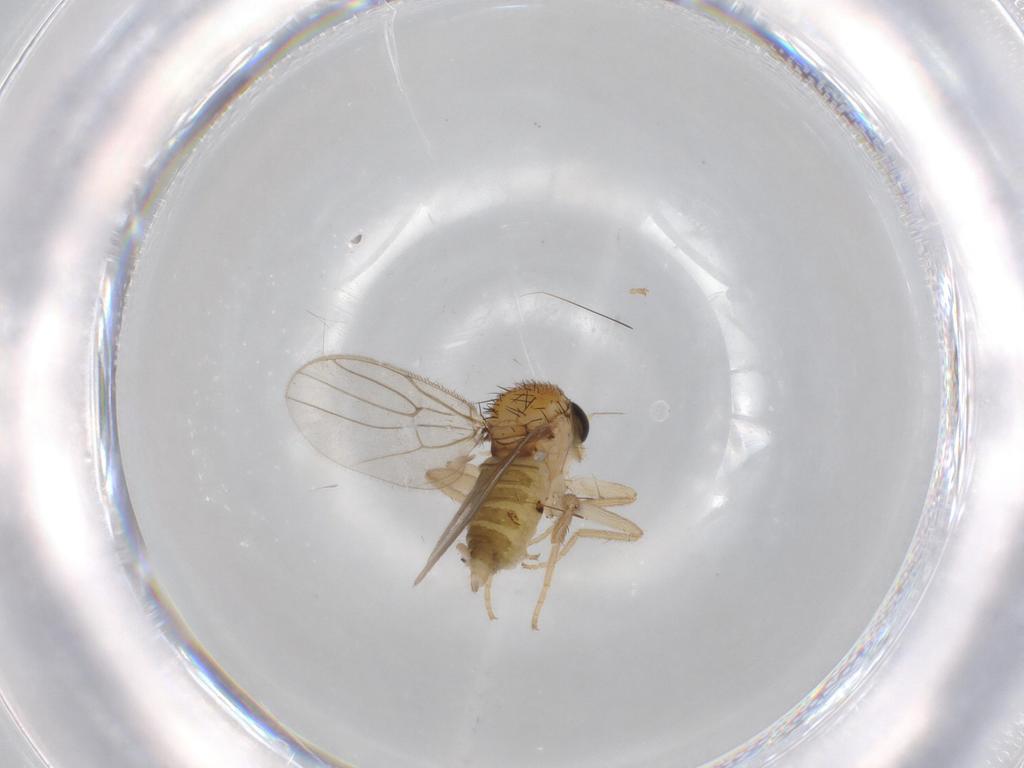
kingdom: Animalia
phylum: Arthropoda
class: Insecta
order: Diptera
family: Hybotidae
